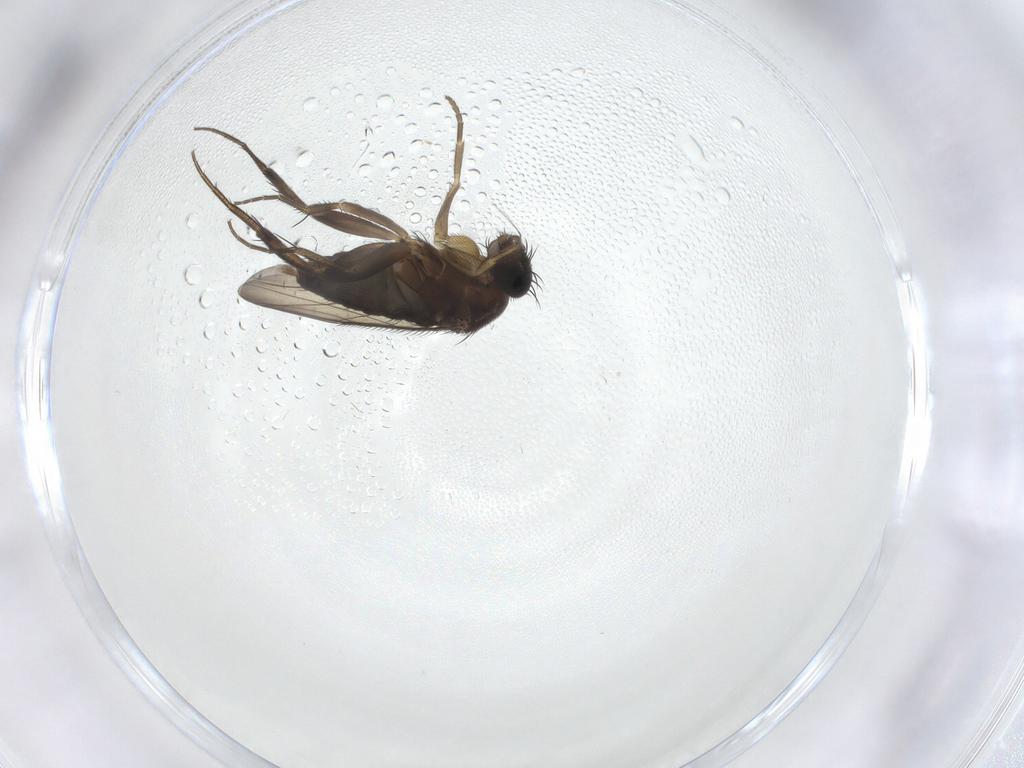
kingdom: Animalia
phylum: Arthropoda
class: Insecta
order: Diptera
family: Phoridae
